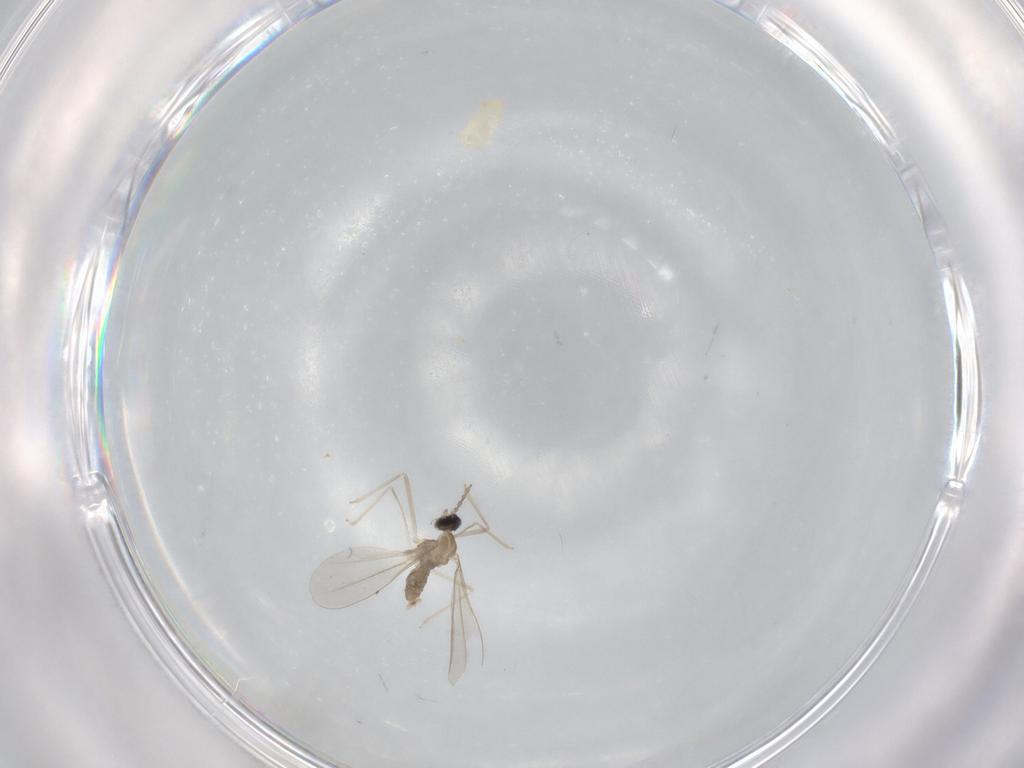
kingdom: Animalia
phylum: Arthropoda
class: Insecta
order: Diptera
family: Cecidomyiidae
